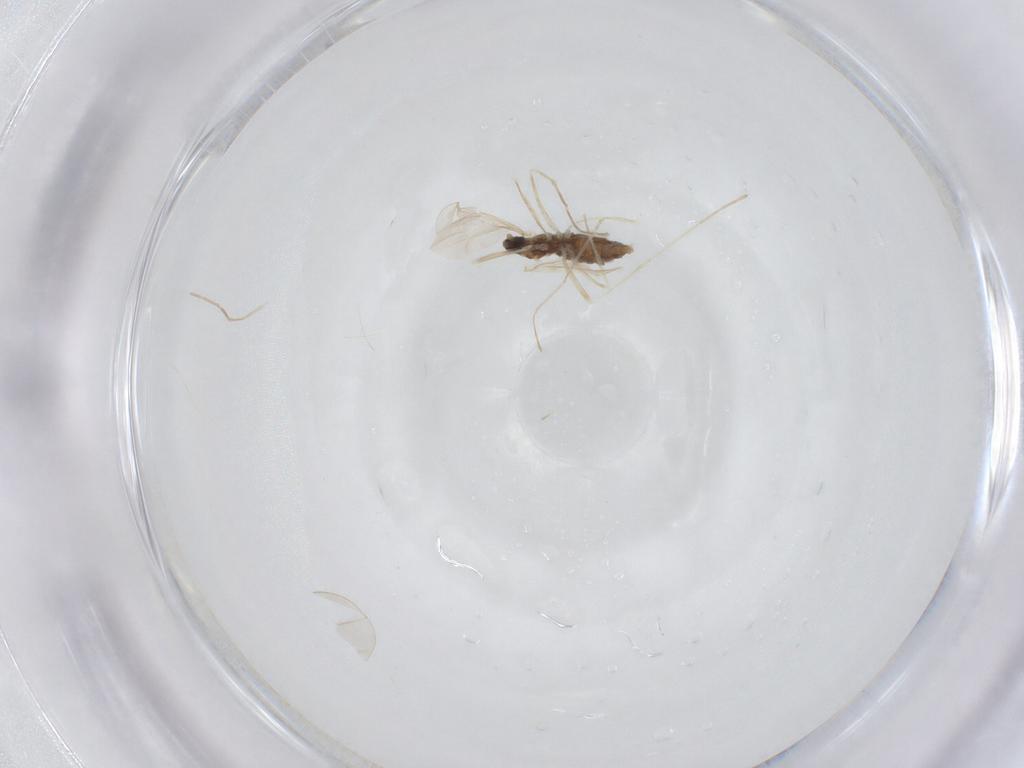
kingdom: Animalia
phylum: Arthropoda
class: Insecta
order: Diptera
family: Cecidomyiidae
